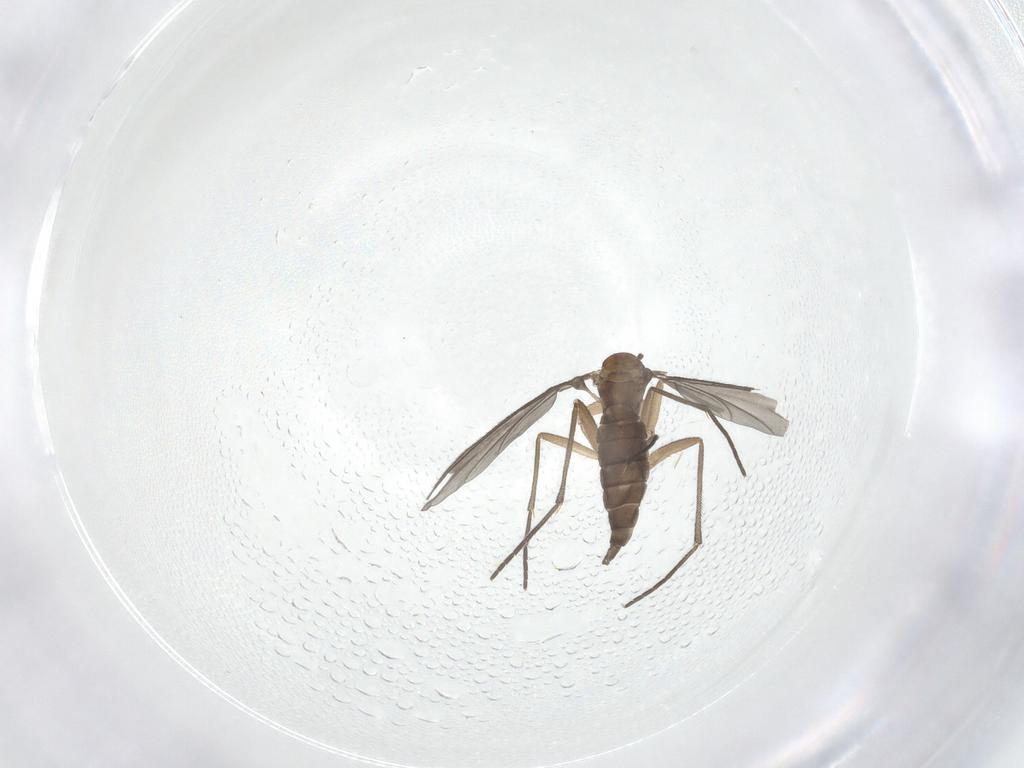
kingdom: Animalia
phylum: Arthropoda
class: Insecta
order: Diptera
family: Sciaridae
